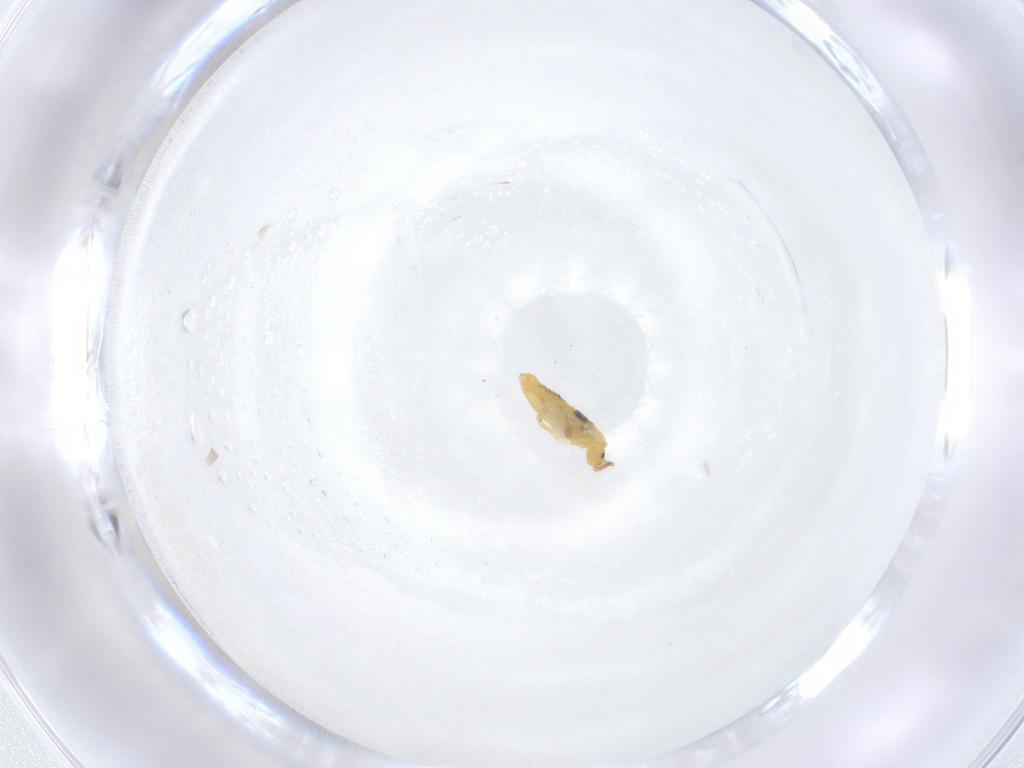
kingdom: Animalia
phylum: Arthropoda
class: Collembola
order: Entomobryomorpha
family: Entomobryidae
